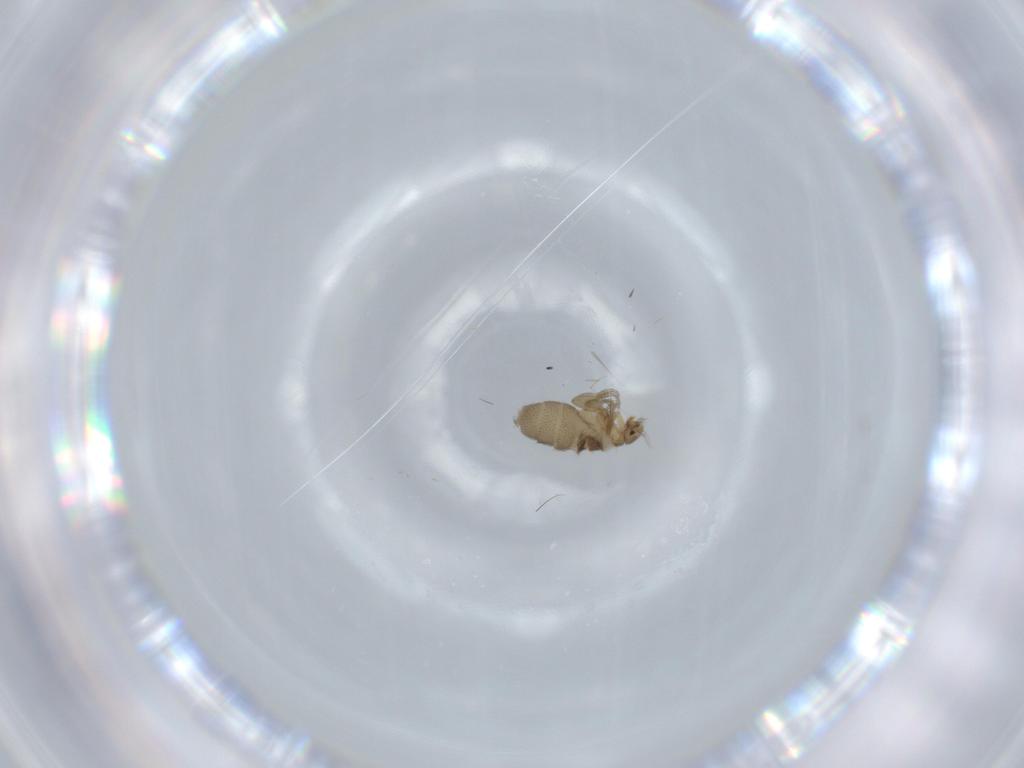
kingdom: Animalia
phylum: Arthropoda
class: Insecta
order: Diptera
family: Phoridae
